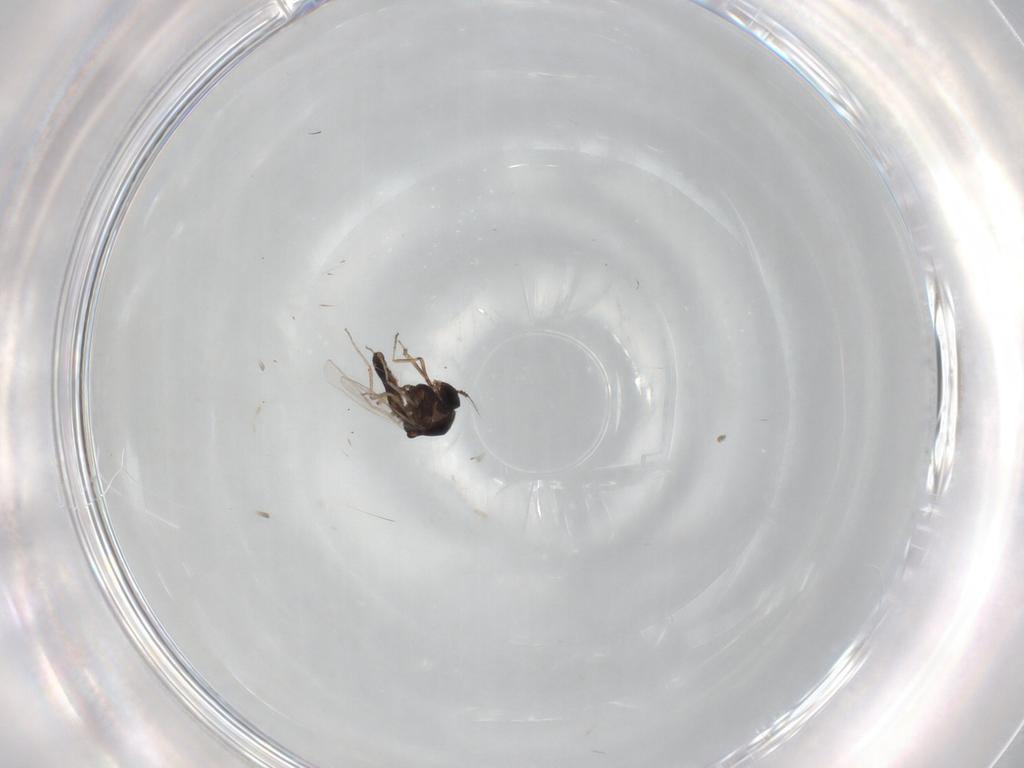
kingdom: Animalia
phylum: Arthropoda
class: Insecta
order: Diptera
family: Ceratopogonidae
